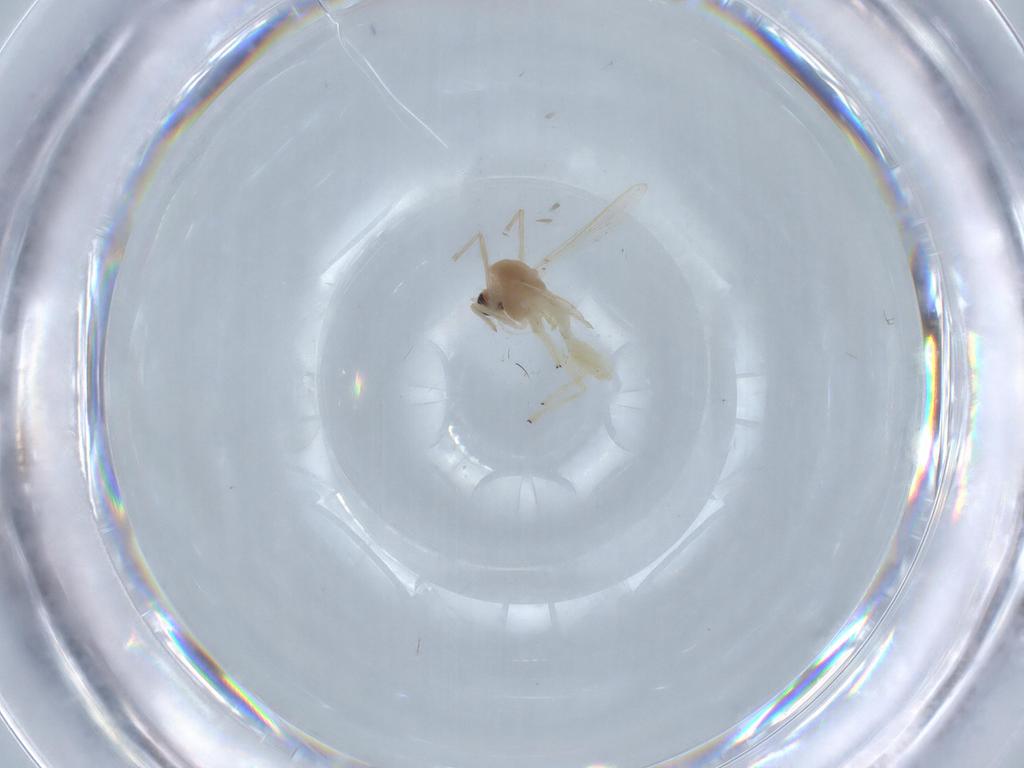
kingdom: Animalia
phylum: Arthropoda
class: Insecta
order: Diptera
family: Chironomidae
